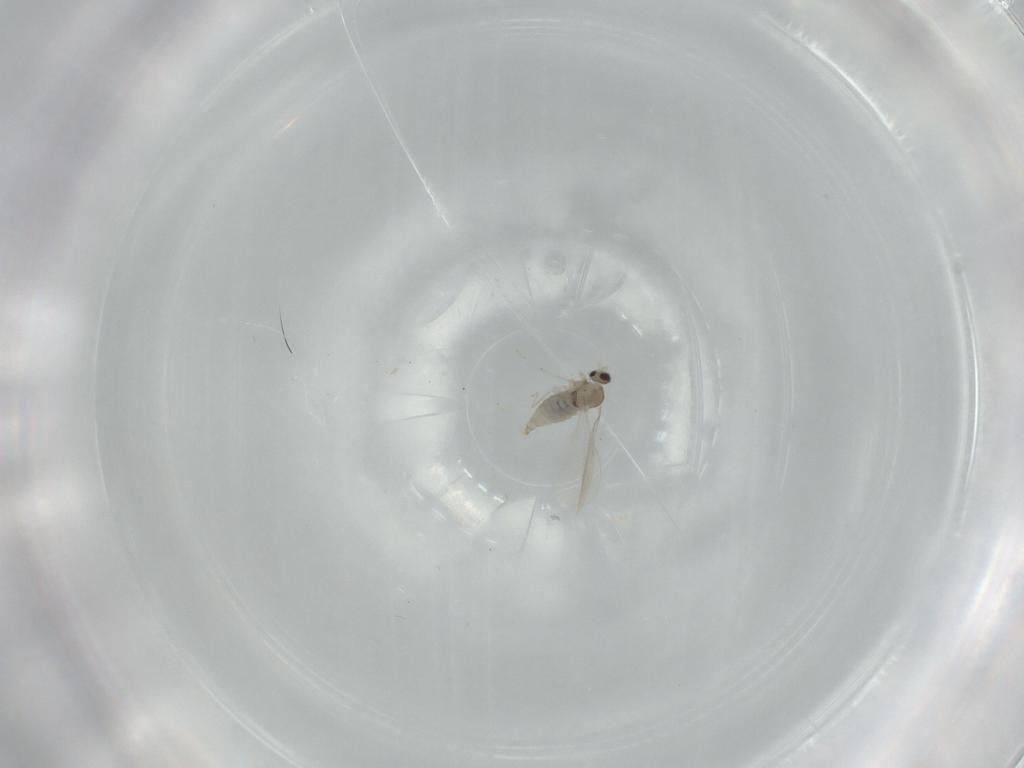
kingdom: Animalia
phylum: Arthropoda
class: Insecta
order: Diptera
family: Cecidomyiidae
